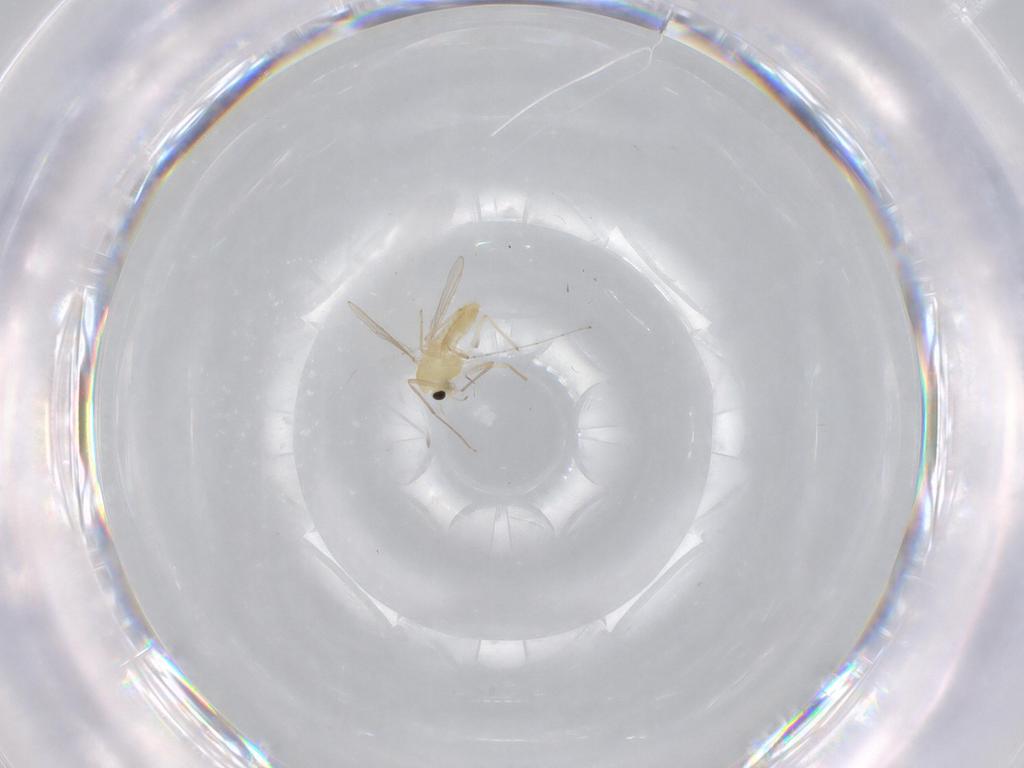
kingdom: Animalia
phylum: Arthropoda
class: Insecta
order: Diptera
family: Chironomidae
